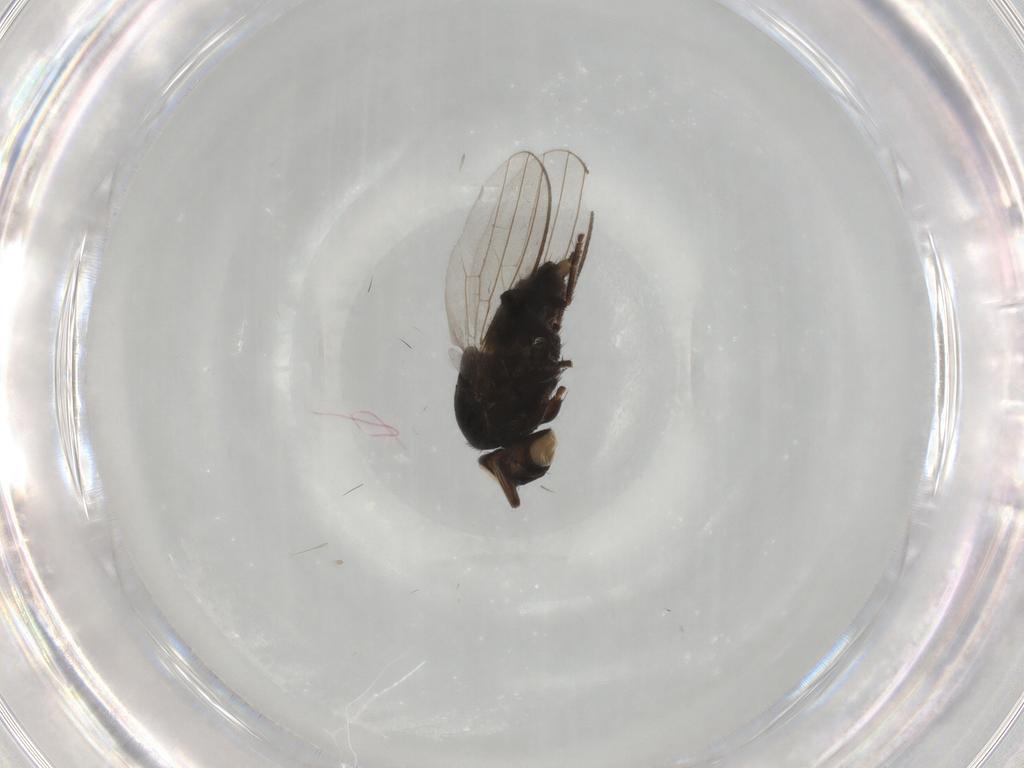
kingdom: Animalia
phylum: Arthropoda
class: Insecta
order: Diptera
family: Milichiidae
